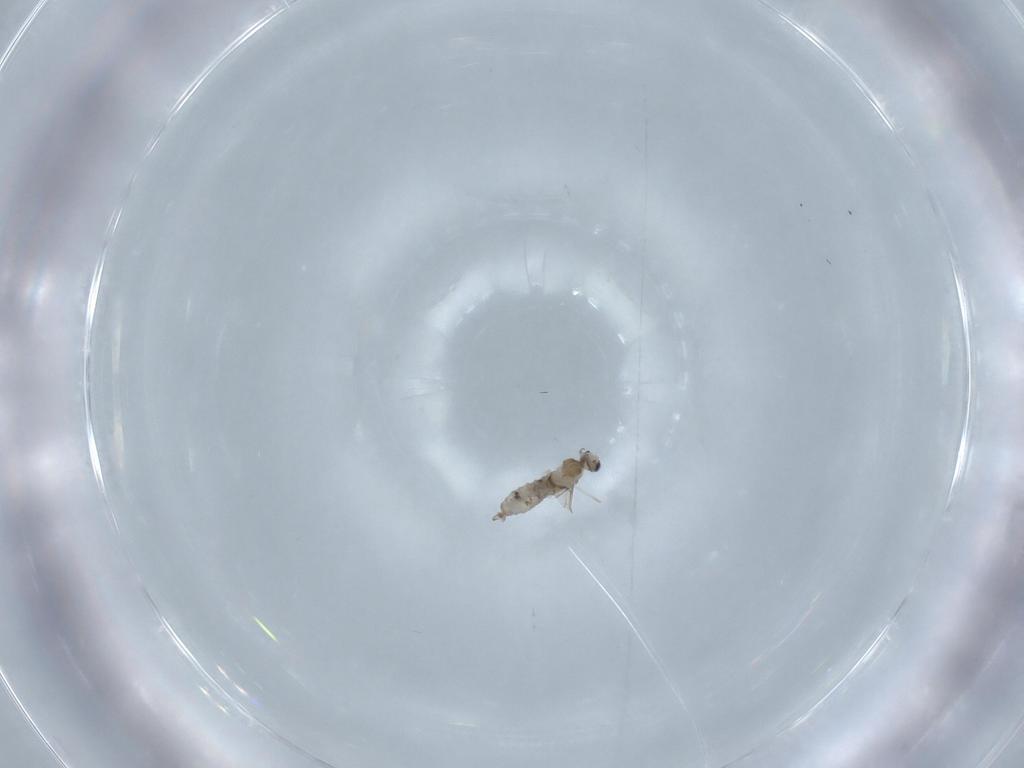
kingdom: Animalia
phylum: Arthropoda
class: Insecta
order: Diptera
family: Cecidomyiidae
